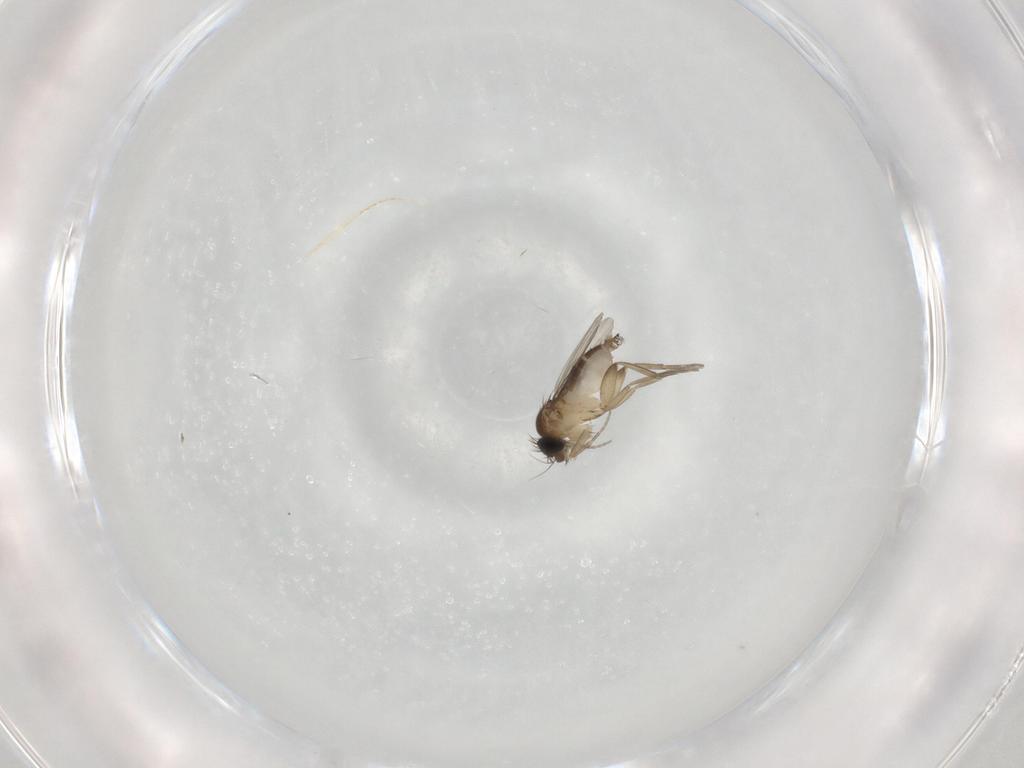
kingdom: Animalia
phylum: Arthropoda
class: Insecta
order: Diptera
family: Phoridae
